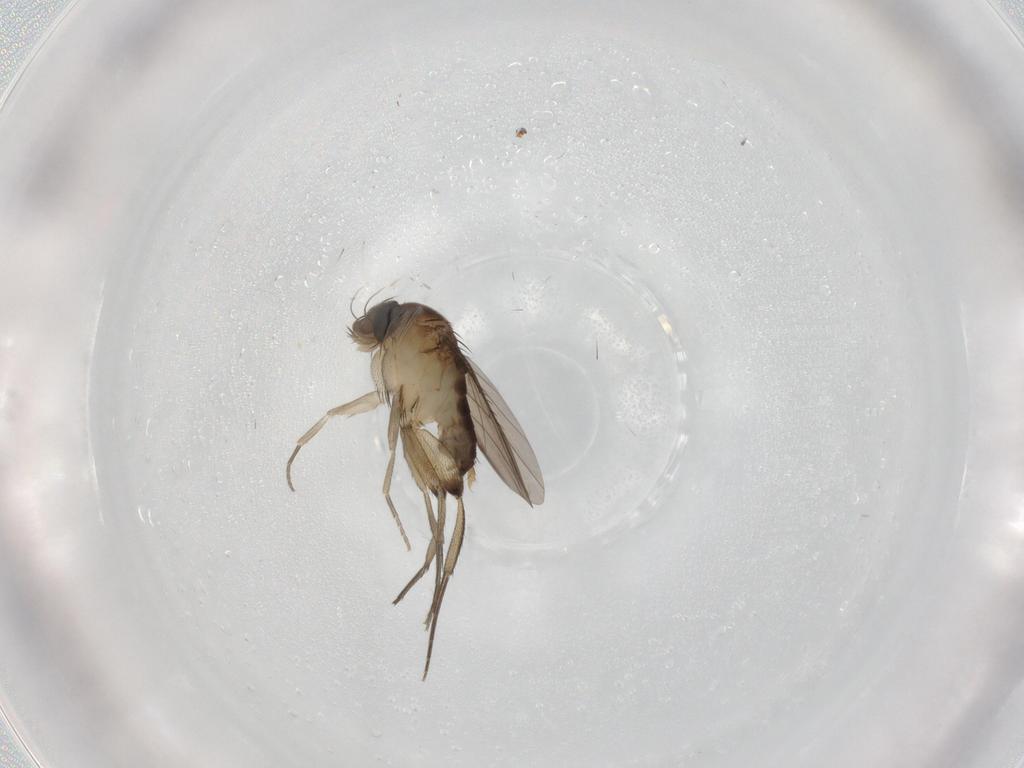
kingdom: Animalia
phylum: Arthropoda
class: Insecta
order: Diptera
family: Phoridae
